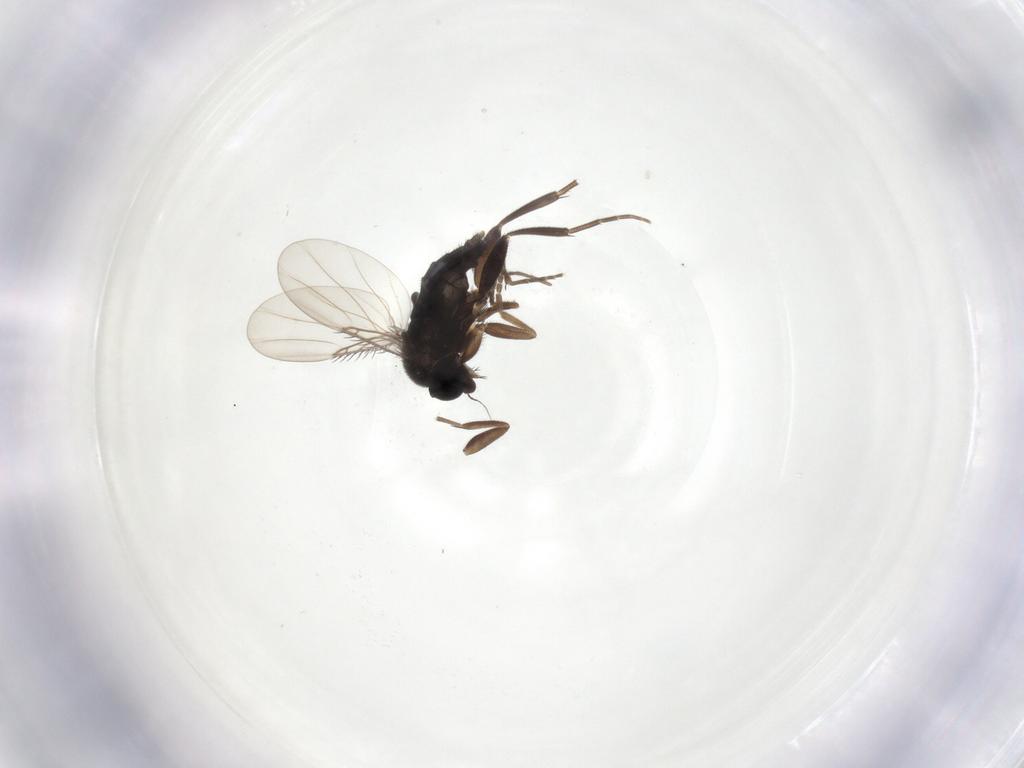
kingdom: Animalia
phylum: Arthropoda
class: Insecta
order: Diptera
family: Phoridae
